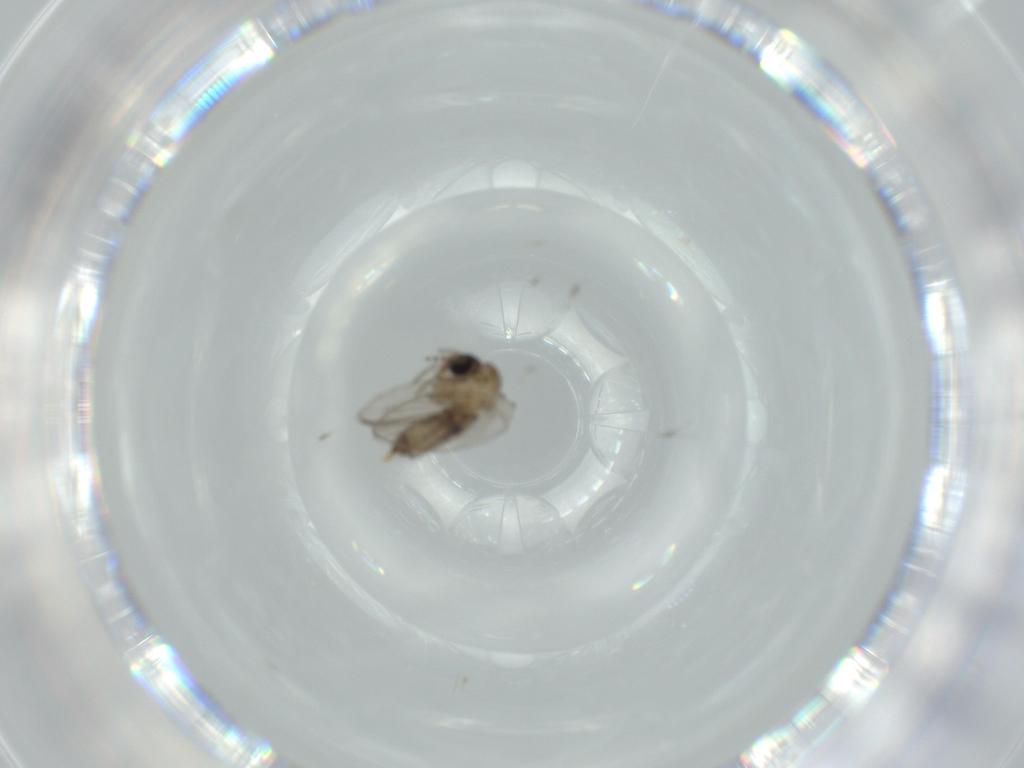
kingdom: Animalia
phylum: Arthropoda
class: Insecta
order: Diptera
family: Psychodidae
